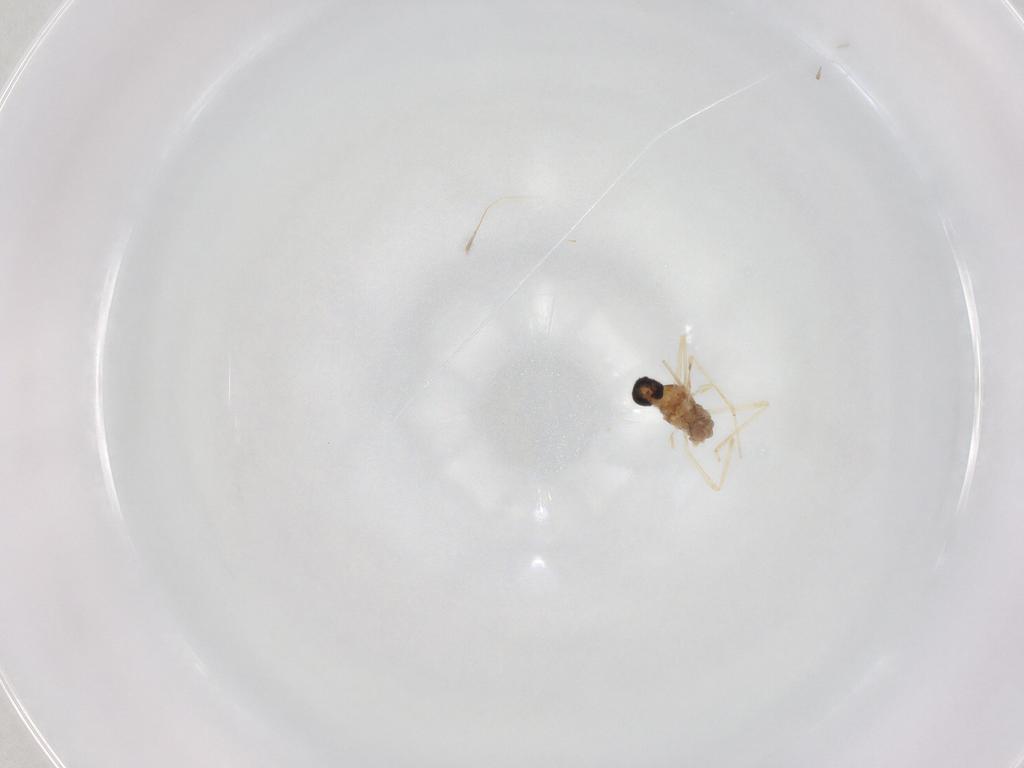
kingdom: Animalia
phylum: Arthropoda
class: Insecta
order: Diptera
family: Cecidomyiidae
